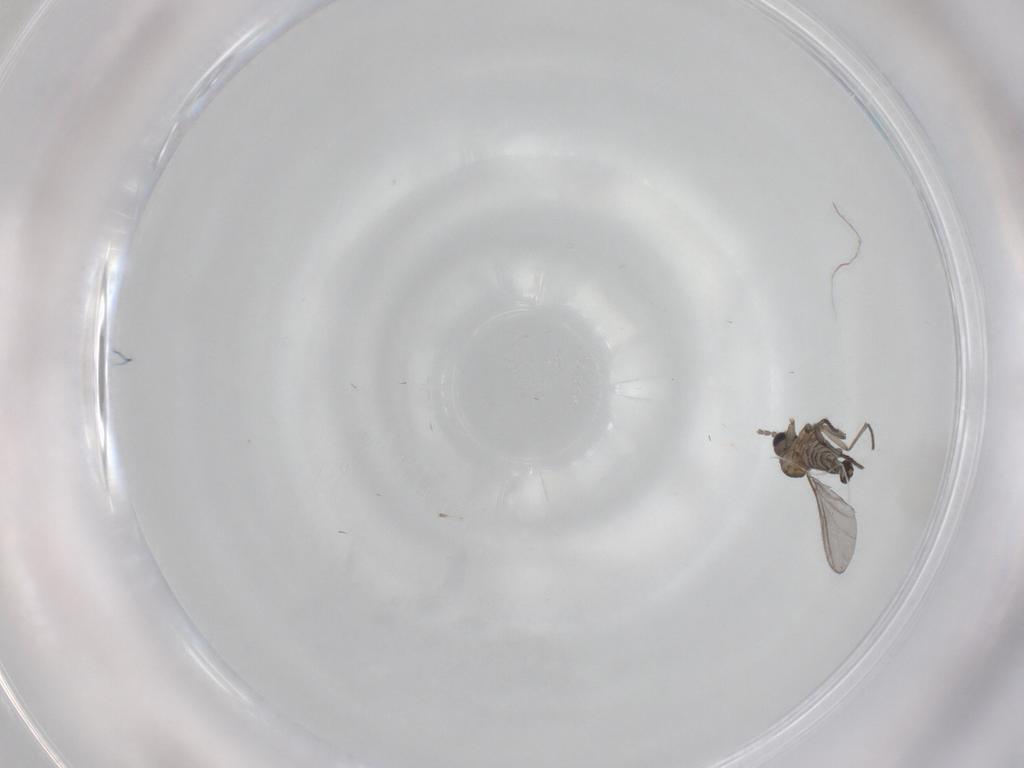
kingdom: Animalia
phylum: Arthropoda
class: Insecta
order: Diptera
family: Sciaridae
